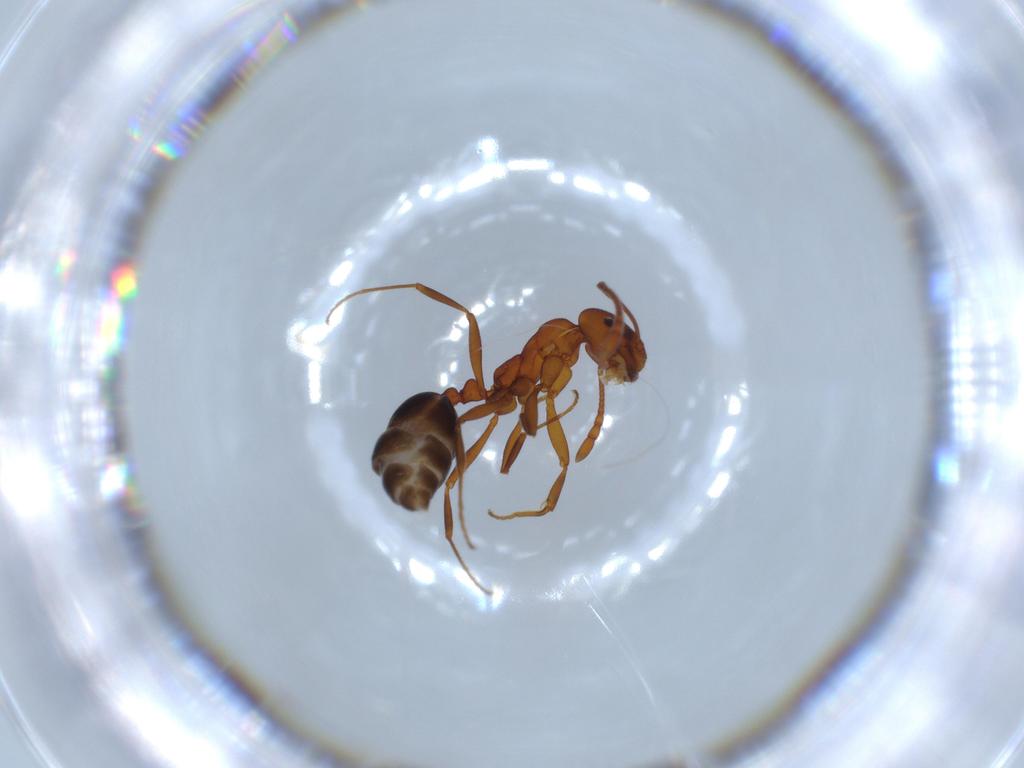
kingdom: Animalia
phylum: Arthropoda
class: Insecta
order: Hymenoptera
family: Formicidae
